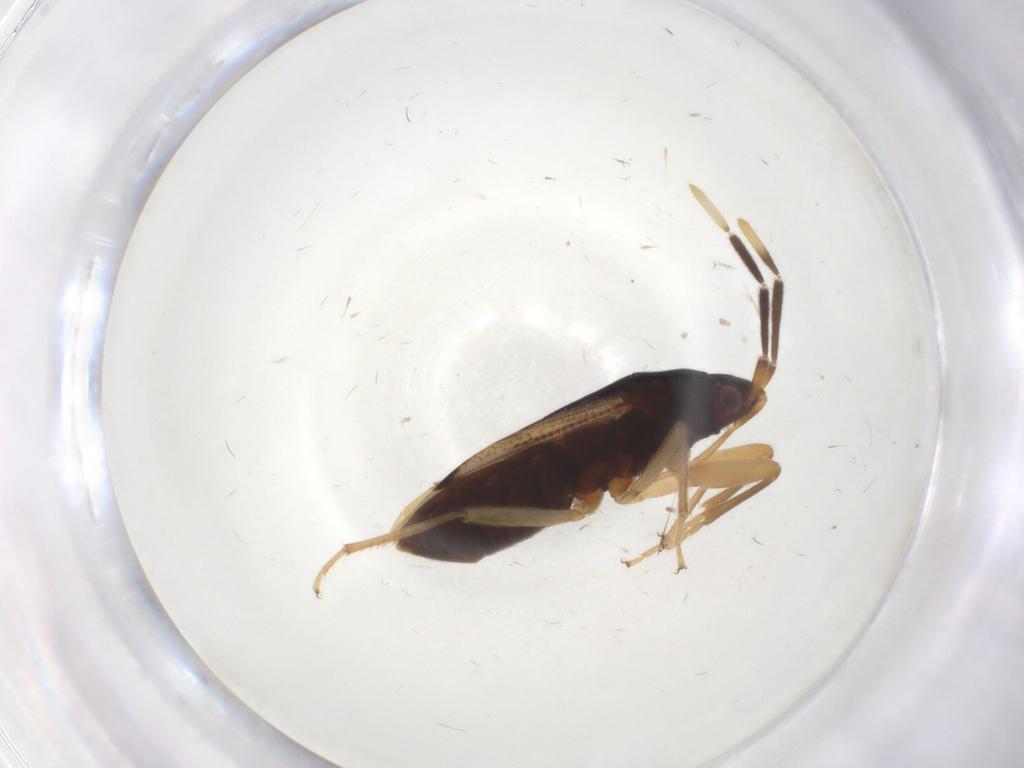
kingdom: Animalia
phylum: Arthropoda
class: Insecta
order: Hemiptera
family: Rhyparochromidae
